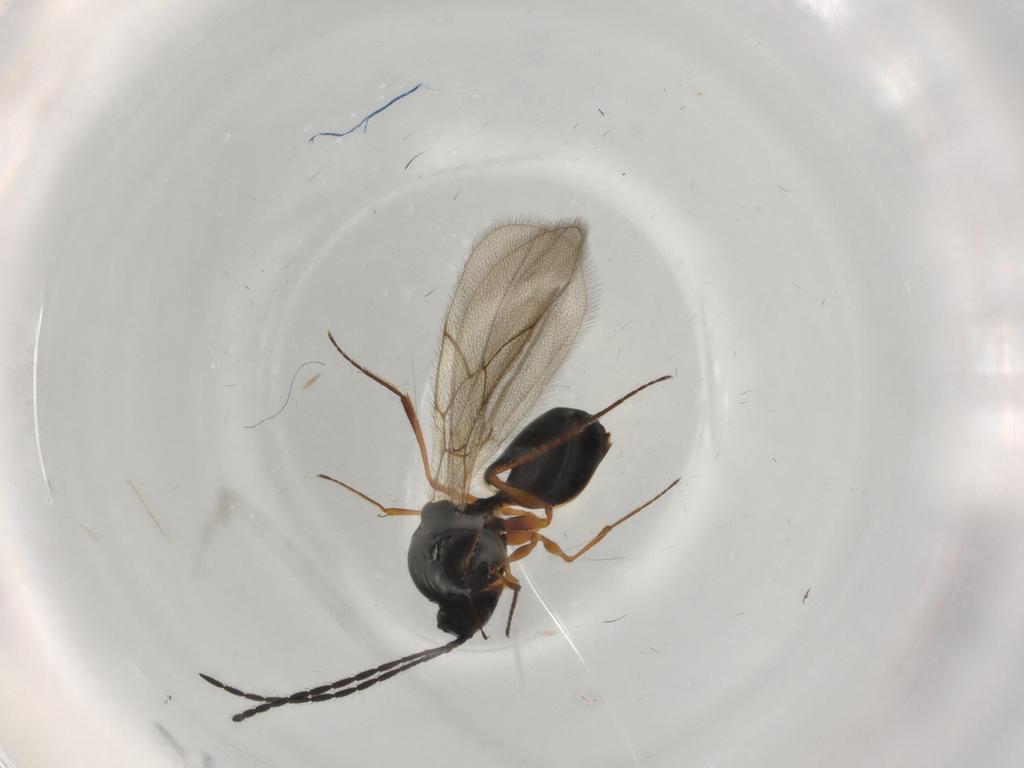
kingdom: Animalia
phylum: Arthropoda
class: Insecta
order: Hymenoptera
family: Figitidae
